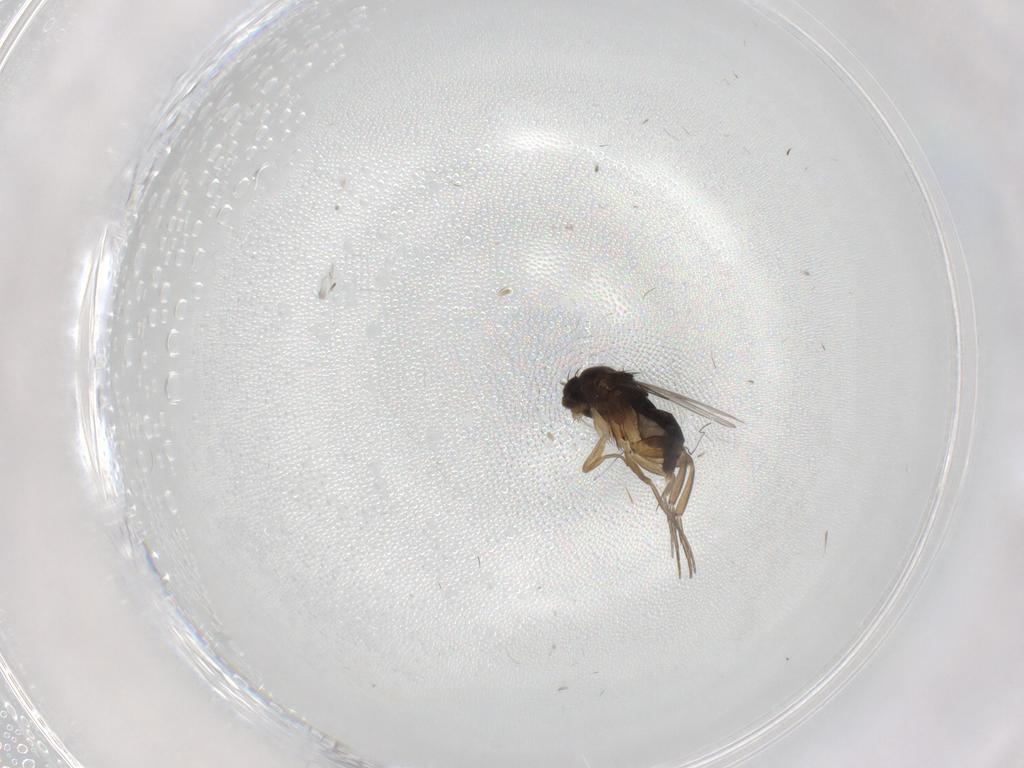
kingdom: Animalia
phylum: Arthropoda
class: Insecta
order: Diptera
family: Phoridae
